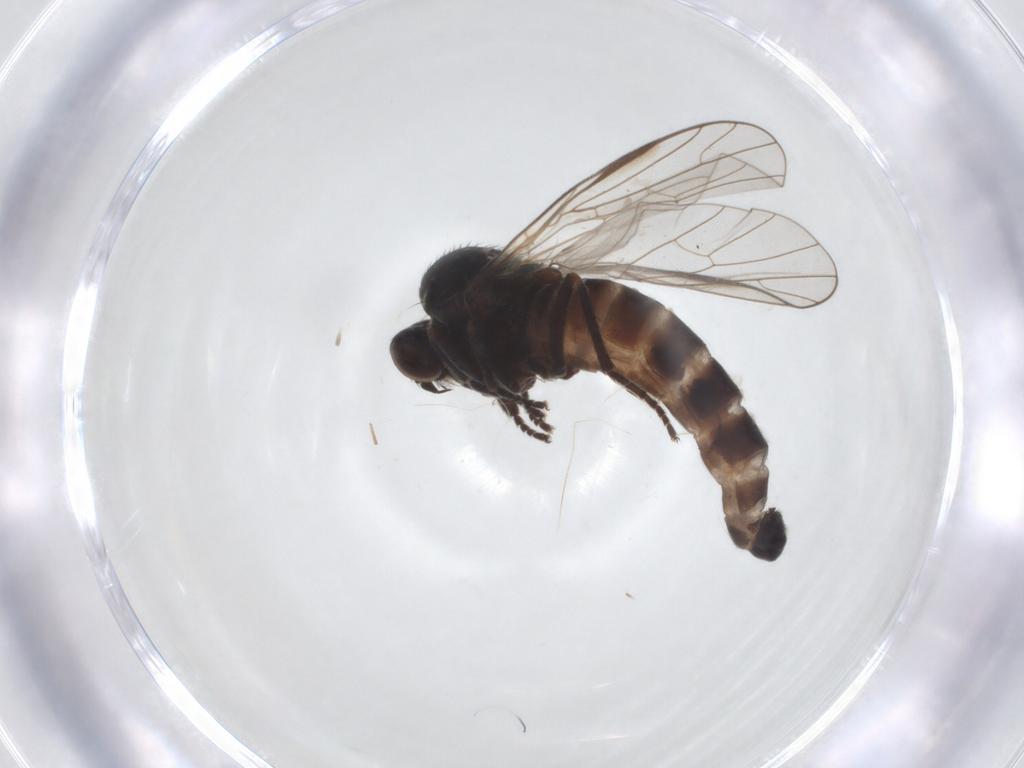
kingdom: Animalia
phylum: Arthropoda
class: Insecta
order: Diptera
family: Empididae
